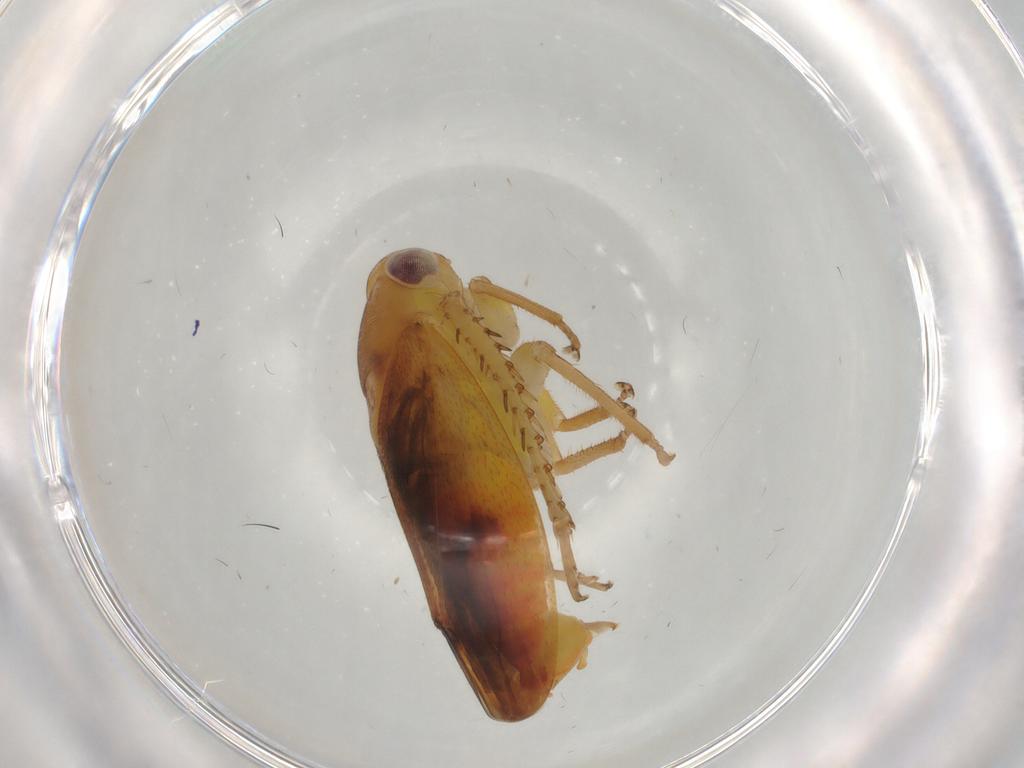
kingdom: Animalia
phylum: Arthropoda
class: Insecta
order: Hemiptera
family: Cicadellidae
